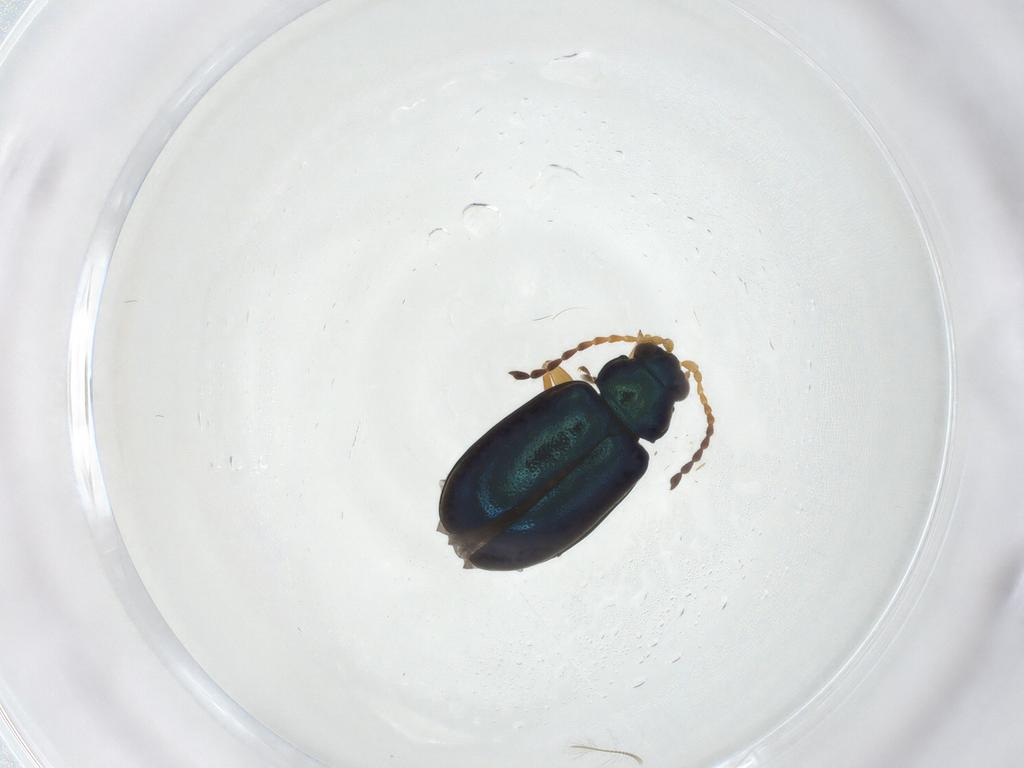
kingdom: Animalia
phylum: Arthropoda
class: Insecta
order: Coleoptera
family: Chrysomelidae
